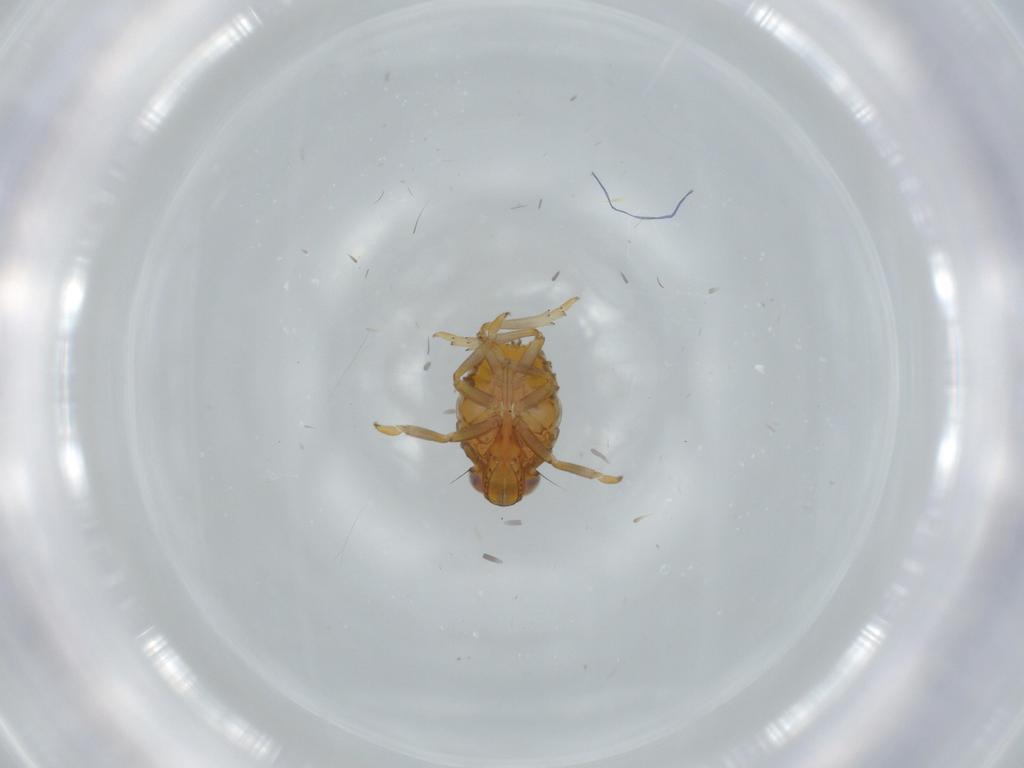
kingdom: Animalia
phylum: Arthropoda
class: Insecta
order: Hemiptera
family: Issidae
